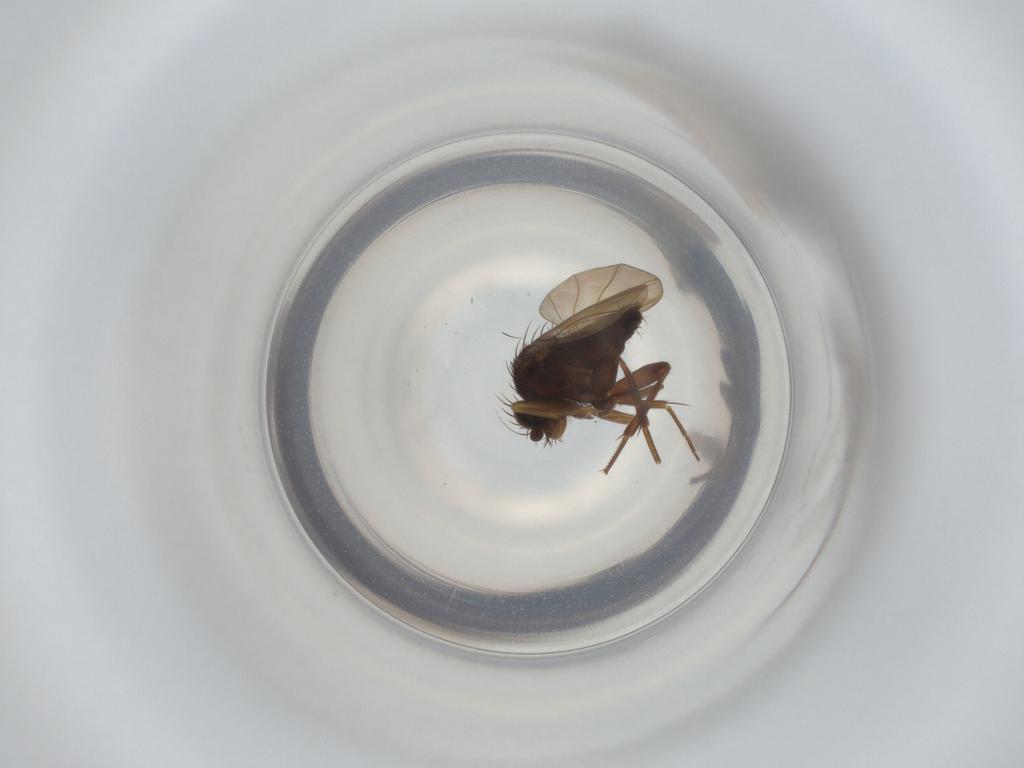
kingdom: Animalia
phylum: Arthropoda
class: Insecta
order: Diptera
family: Phoridae
